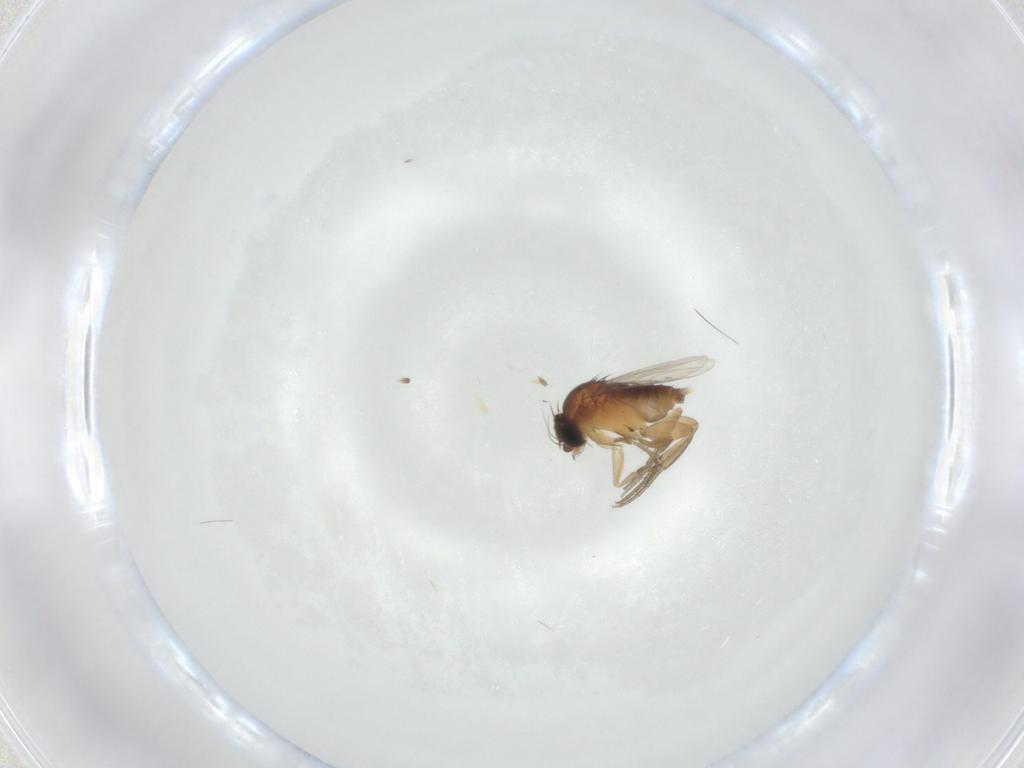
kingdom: Animalia
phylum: Arthropoda
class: Insecta
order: Diptera
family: Phoridae
